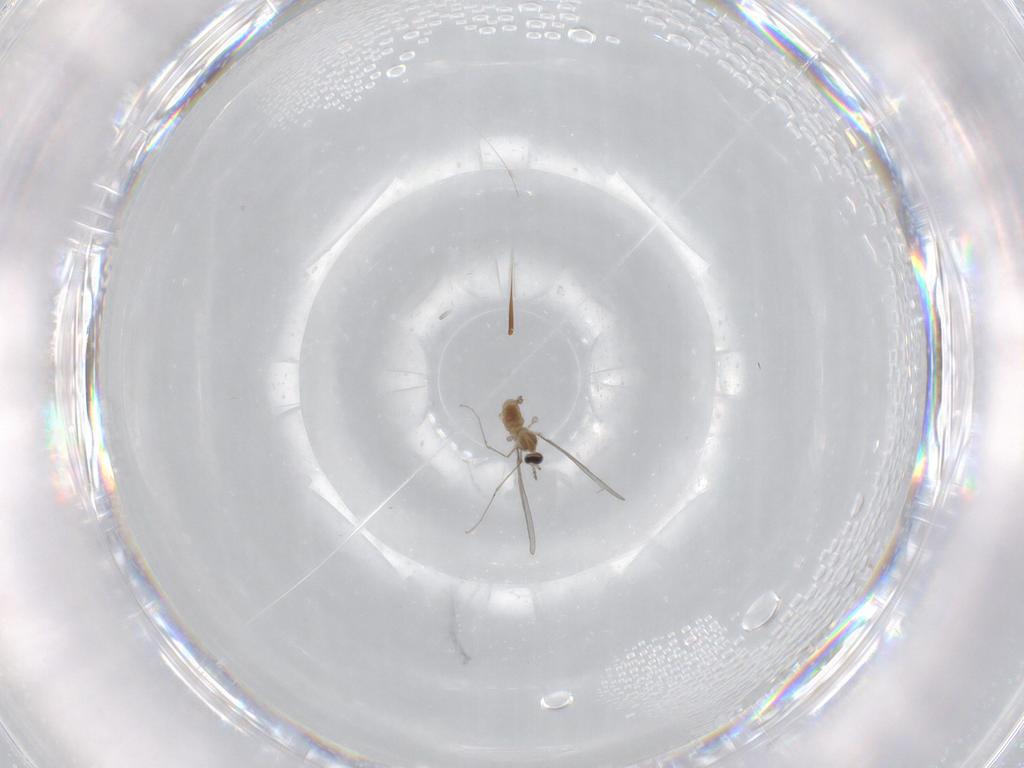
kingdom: Animalia
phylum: Arthropoda
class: Insecta
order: Diptera
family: Cecidomyiidae
